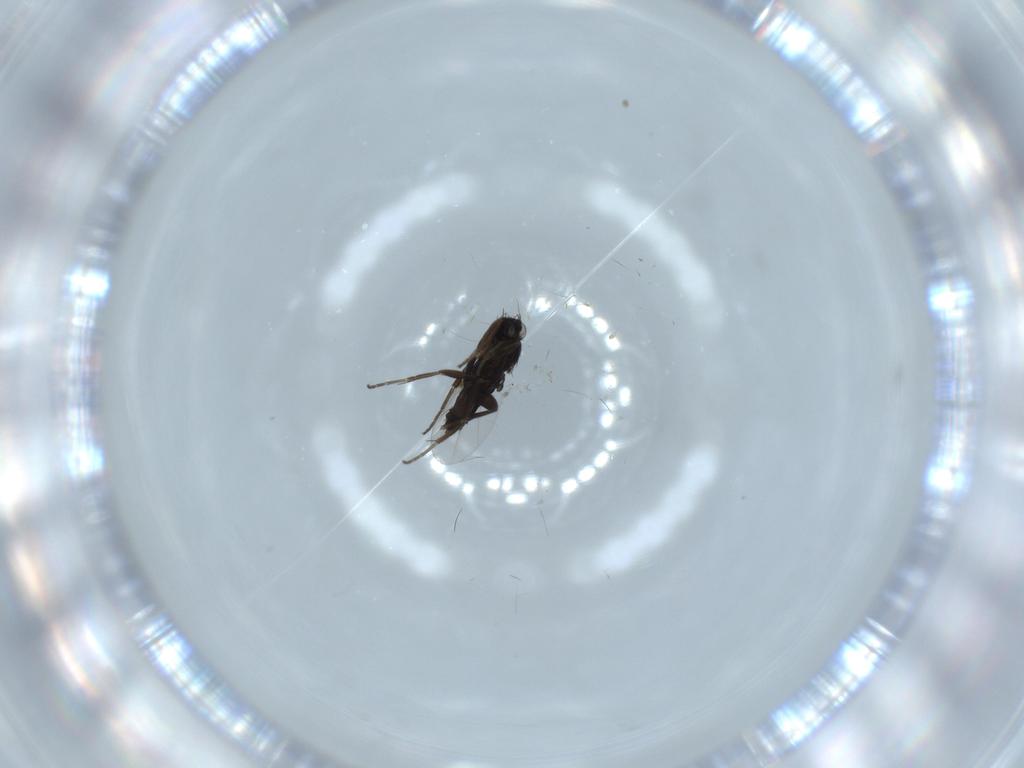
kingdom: Animalia
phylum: Arthropoda
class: Insecta
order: Diptera
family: Phoridae
